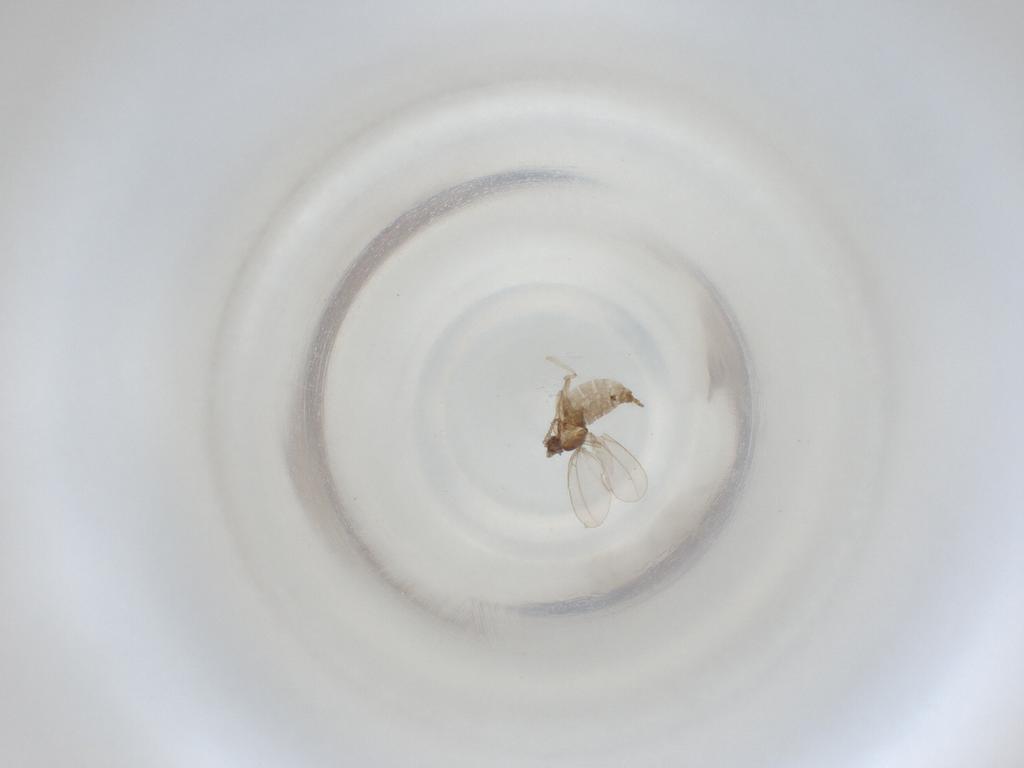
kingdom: Animalia
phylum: Arthropoda
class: Insecta
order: Diptera
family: Cecidomyiidae
